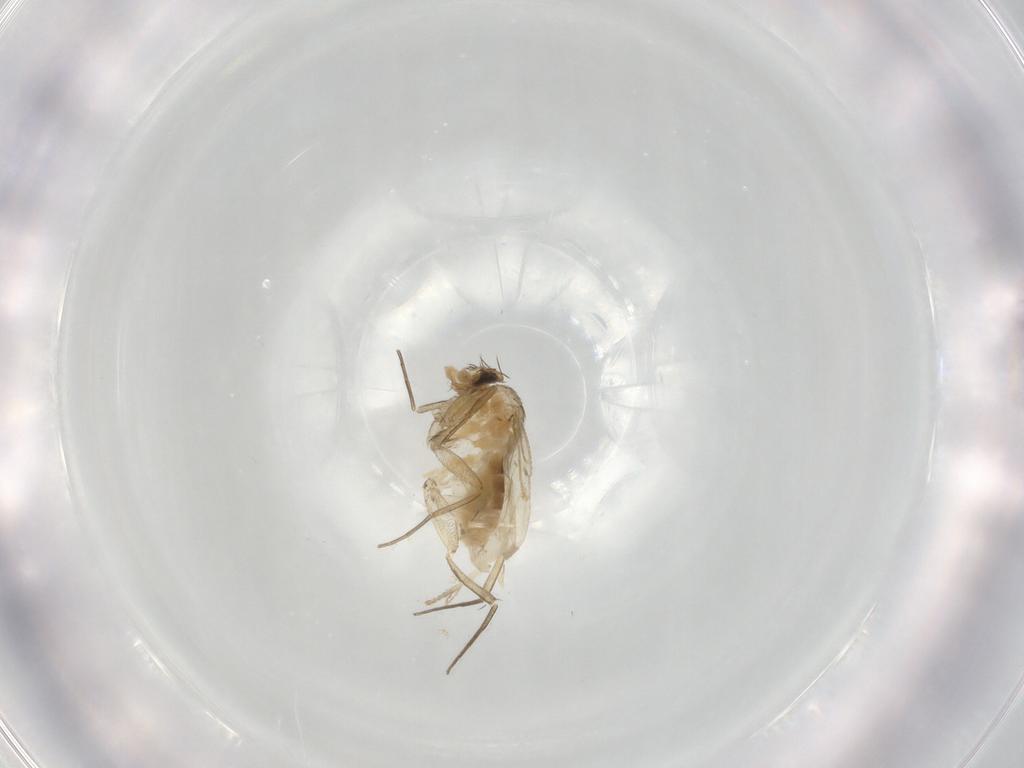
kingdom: Animalia
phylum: Arthropoda
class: Insecta
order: Diptera
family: Psychodidae
